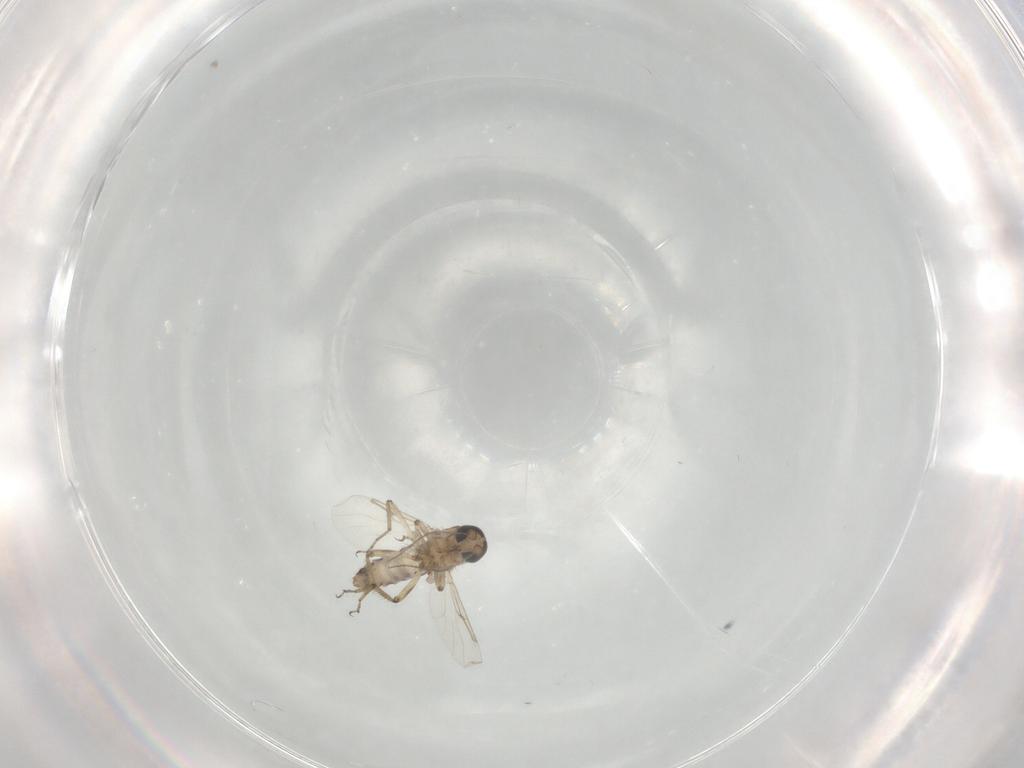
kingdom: Animalia
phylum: Arthropoda
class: Insecta
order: Diptera
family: Ceratopogonidae
